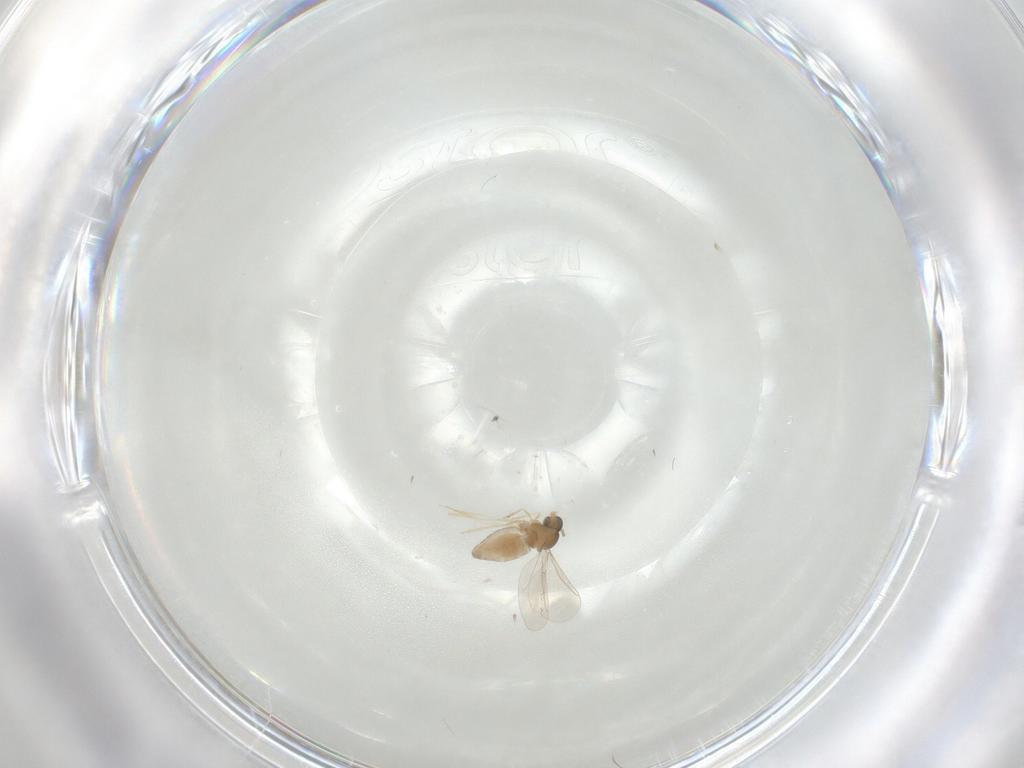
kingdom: Animalia
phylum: Arthropoda
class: Insecta
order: Diptera
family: Cecidomyiidae
